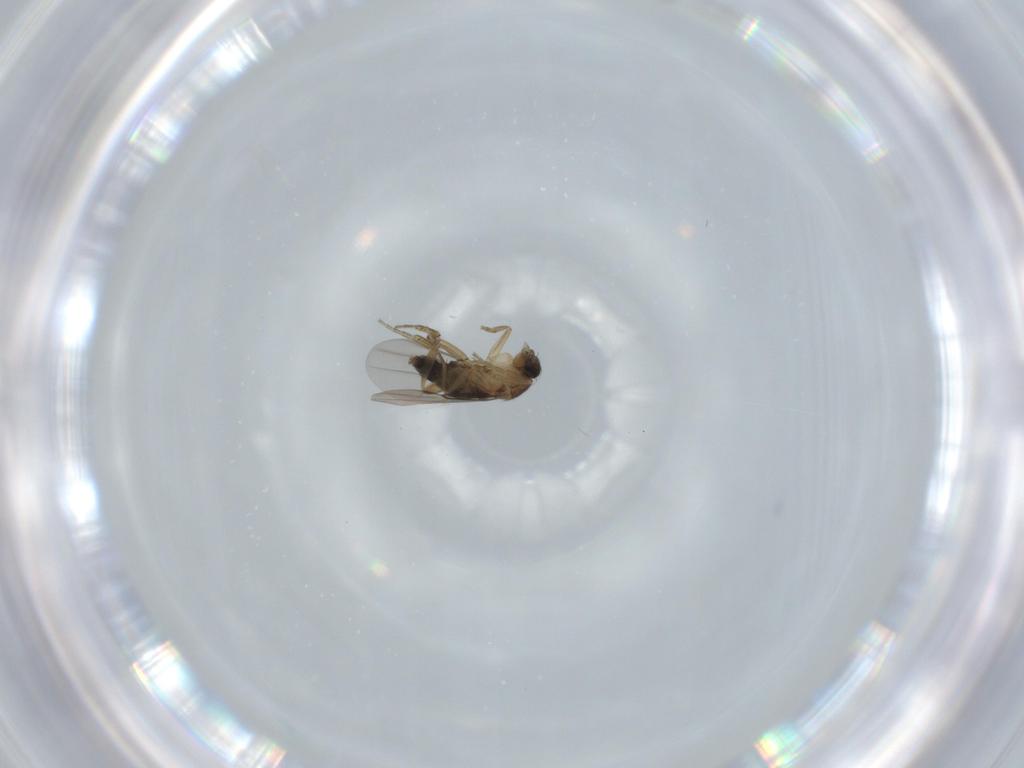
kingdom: Animalia
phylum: Arthropoda
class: Insecta
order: Diptera
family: Phoridae
